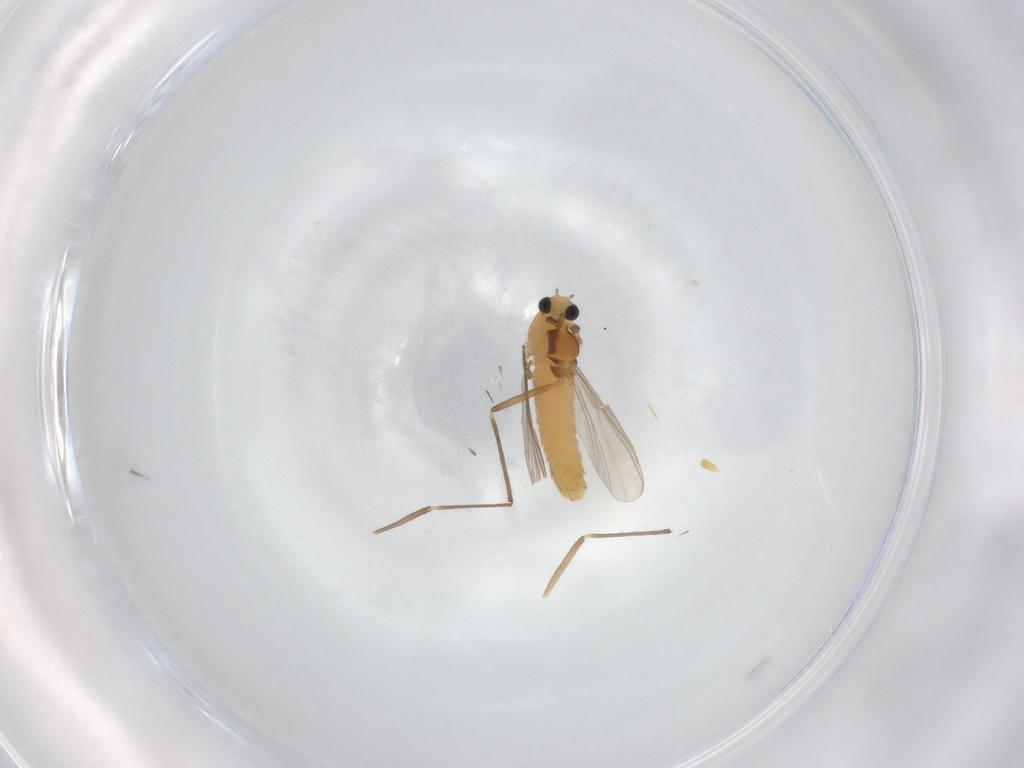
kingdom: Animalia
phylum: Arthropoda
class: Insecta
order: Diptera
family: Chironomidae
